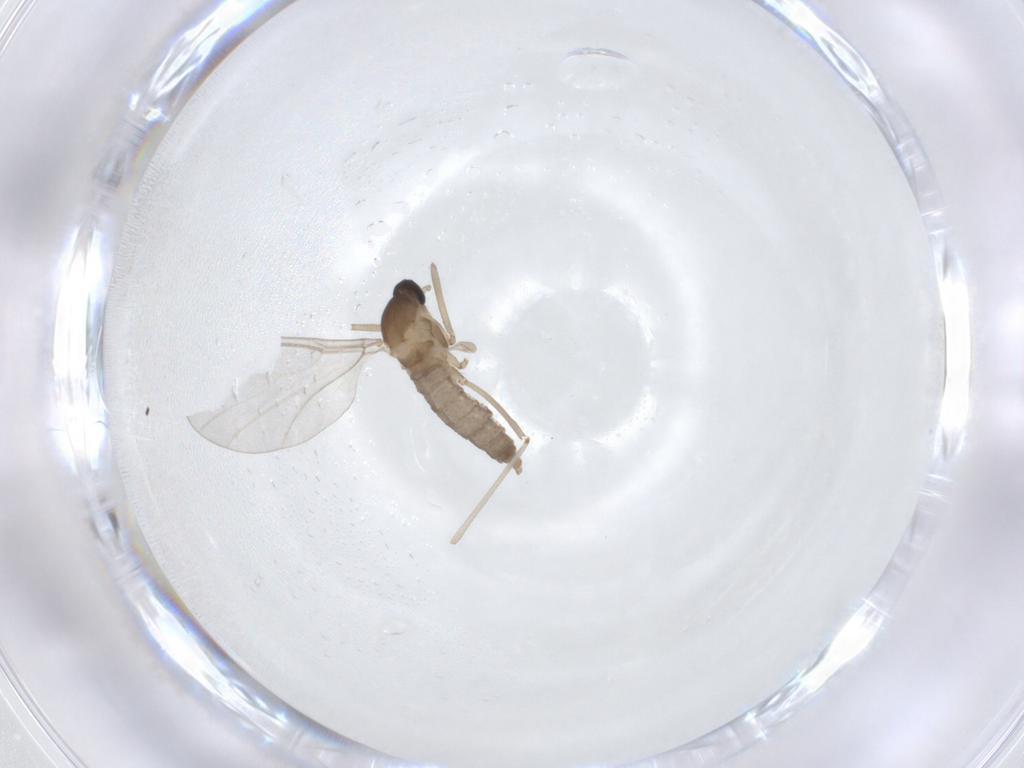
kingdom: Animalia
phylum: Arthropoda
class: Insecta
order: Diptera
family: Cecidomyiidae
